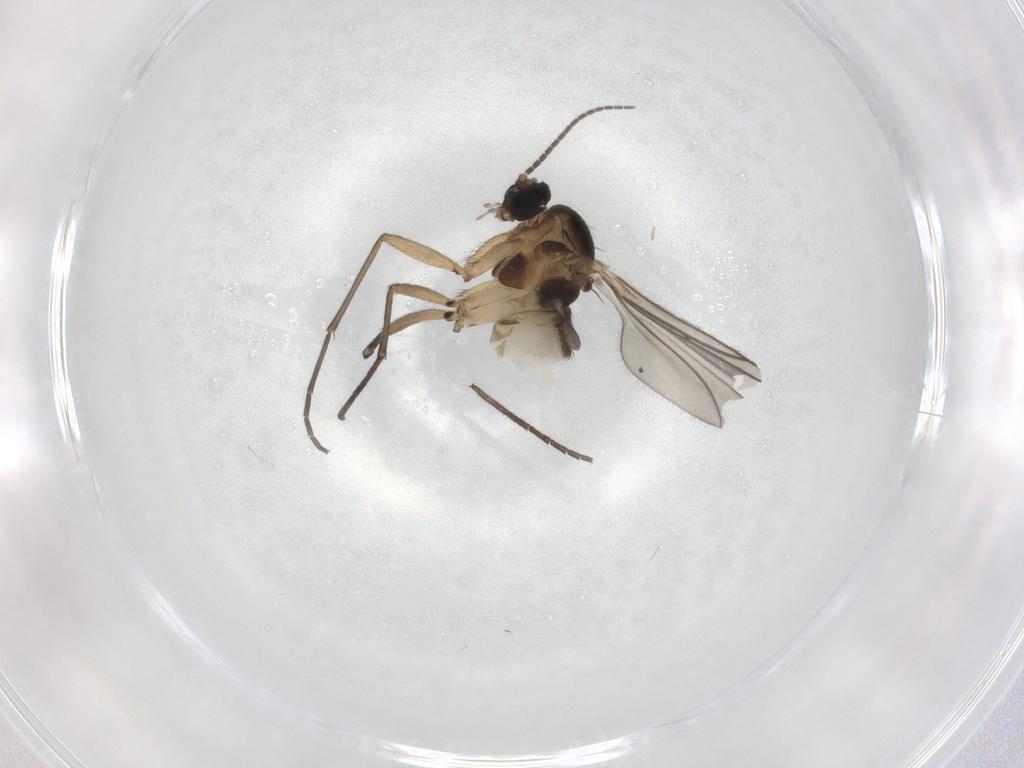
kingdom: Animalia
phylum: Arthropoda
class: Insecta
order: Diptera
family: Sciaridae
